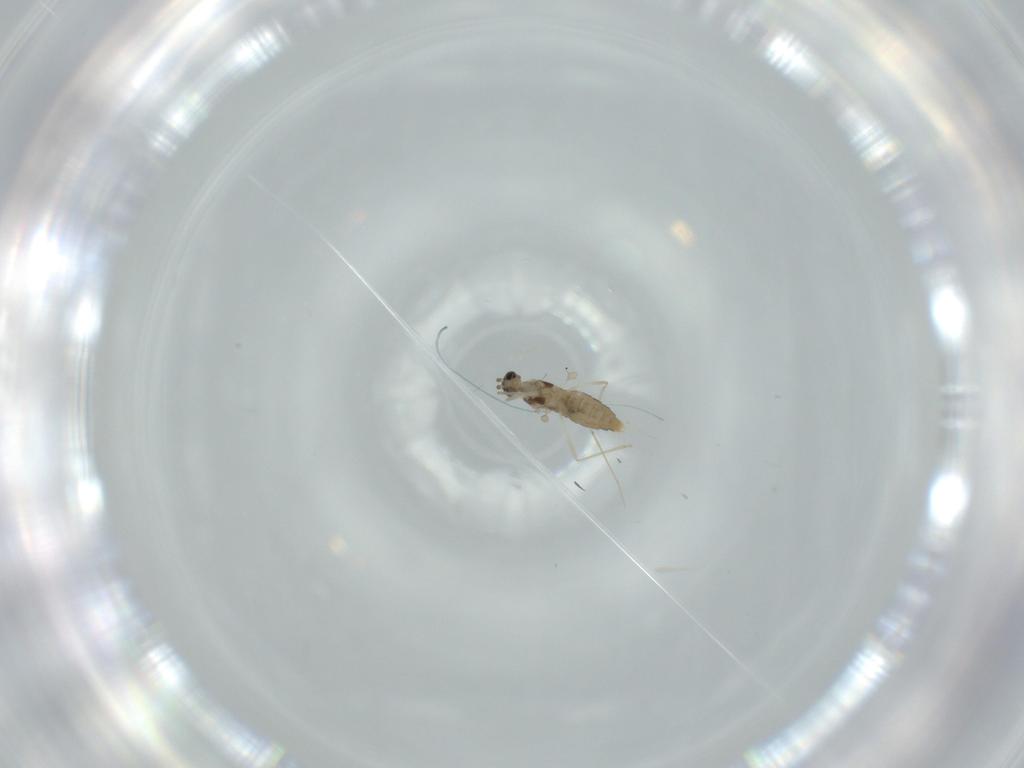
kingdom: Animalia
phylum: Arthropoda
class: Insecta
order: Diptera
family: Cecidomyiidae
